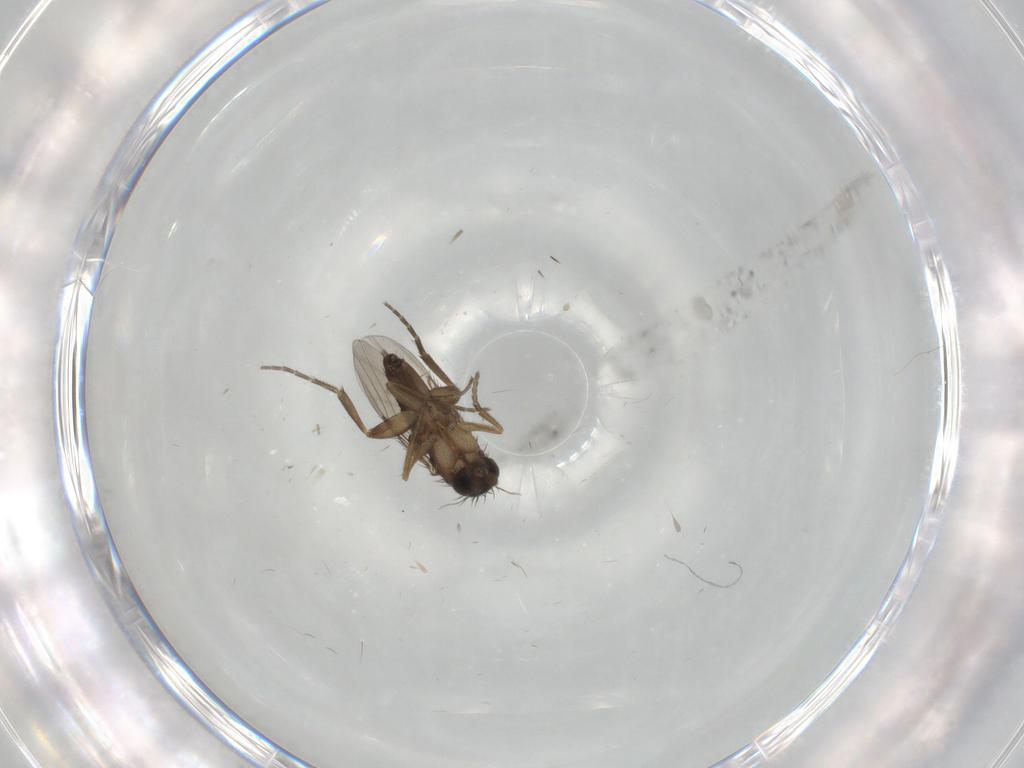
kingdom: Animalia
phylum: Arthropoda
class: Insecta
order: Diptera
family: Phoridae
